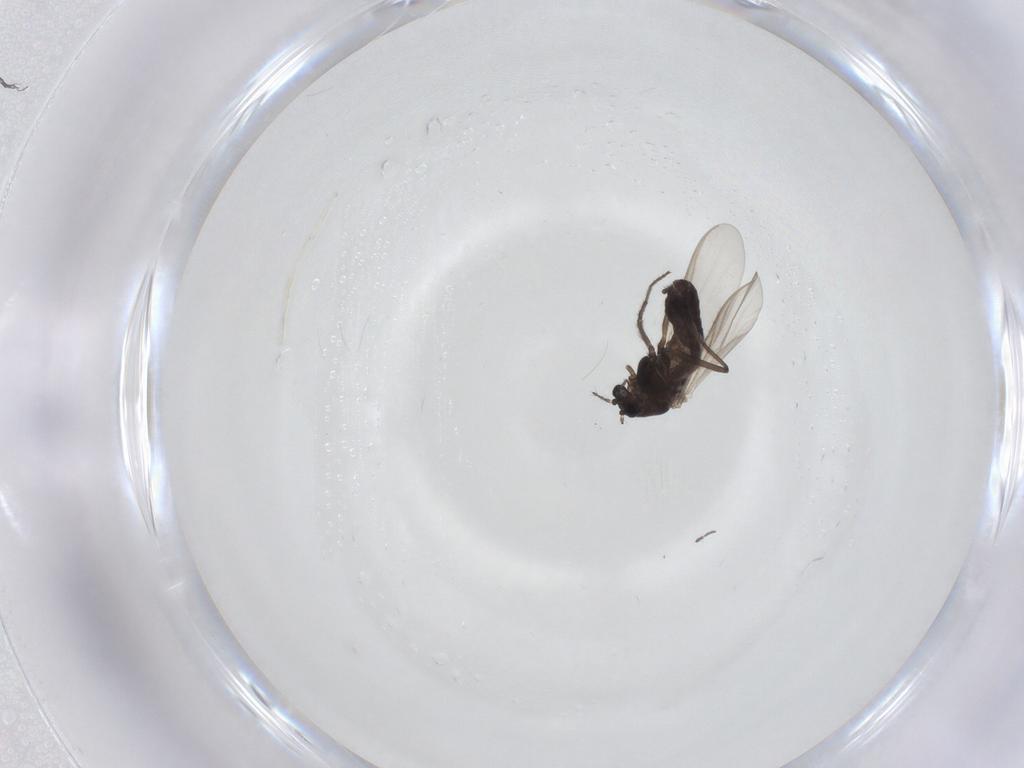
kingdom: Animalia
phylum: Arthropoda
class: Insecta
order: Diptera
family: Chironomidae
